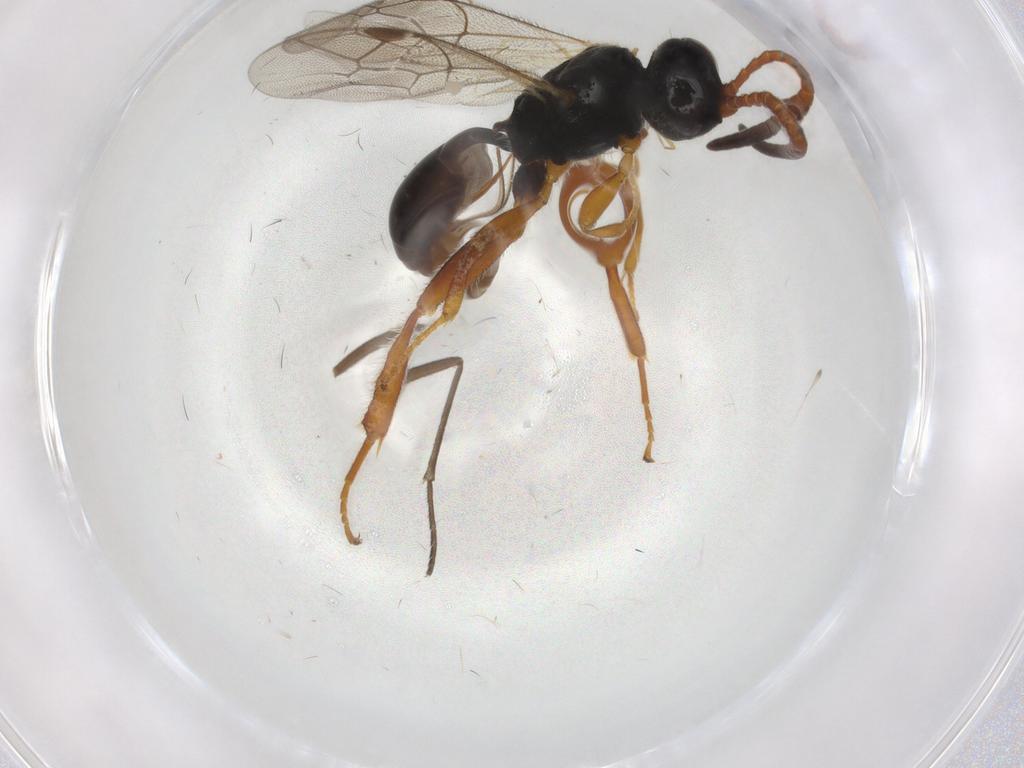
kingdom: Animalia
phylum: Arthropoda
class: Insecta
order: Hymenoptera
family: Ichneumonidae
